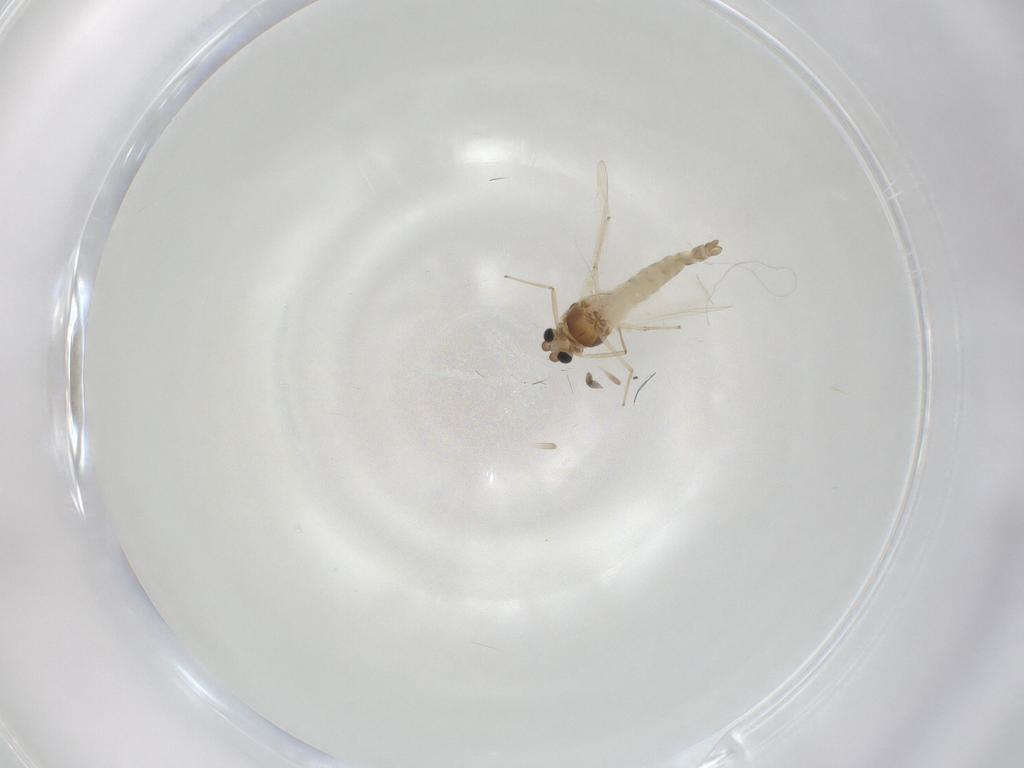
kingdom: Animalia
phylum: Arthropoda
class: Insecta
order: Diptera
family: Chironomidae
